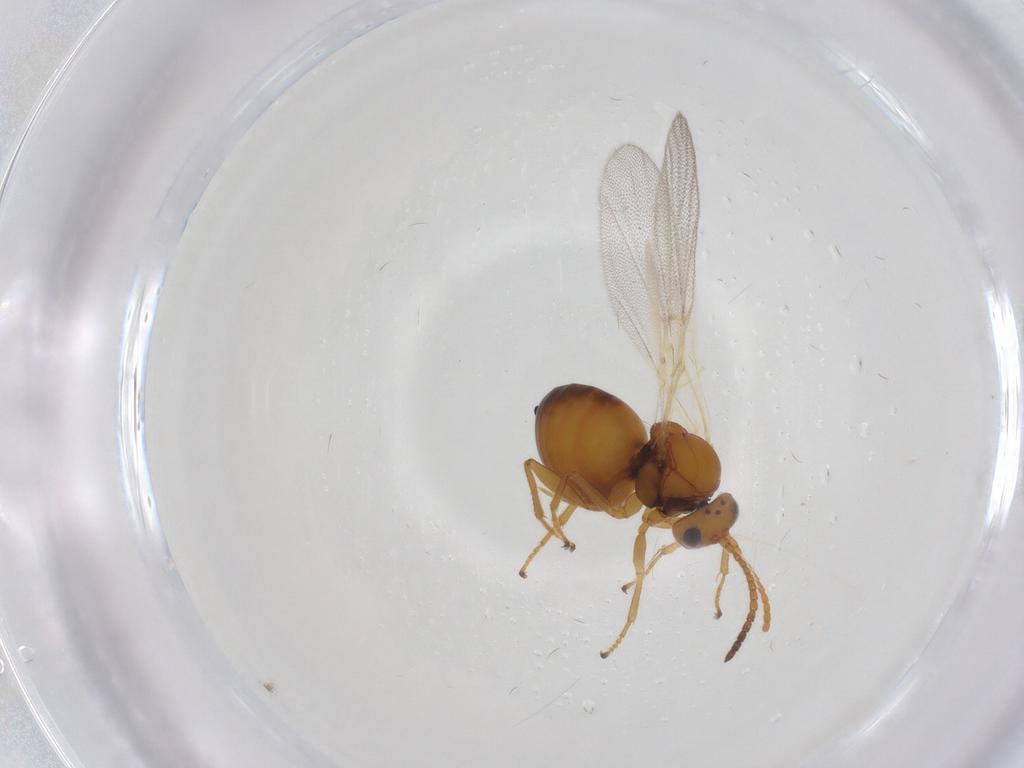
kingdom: Animalia
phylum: Arthropoda
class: Insecta
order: Hymenoptera
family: Cynipidae
